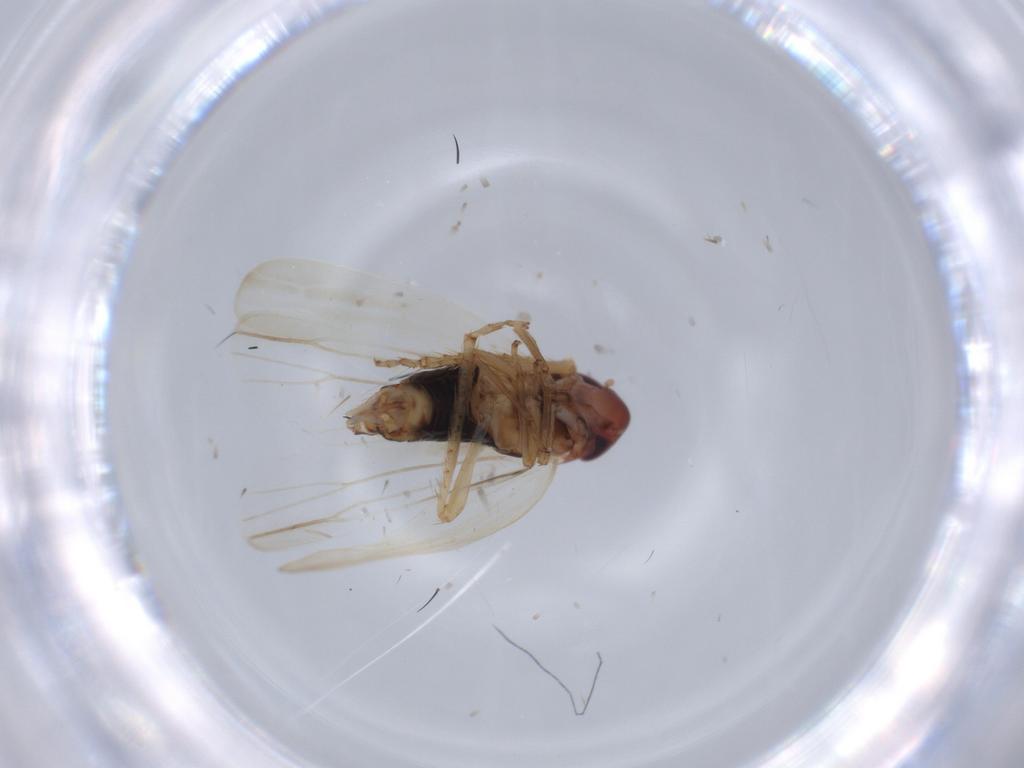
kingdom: Animalia
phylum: Arthropoda
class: Insecta
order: Hemiptera
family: Cicadellidae
